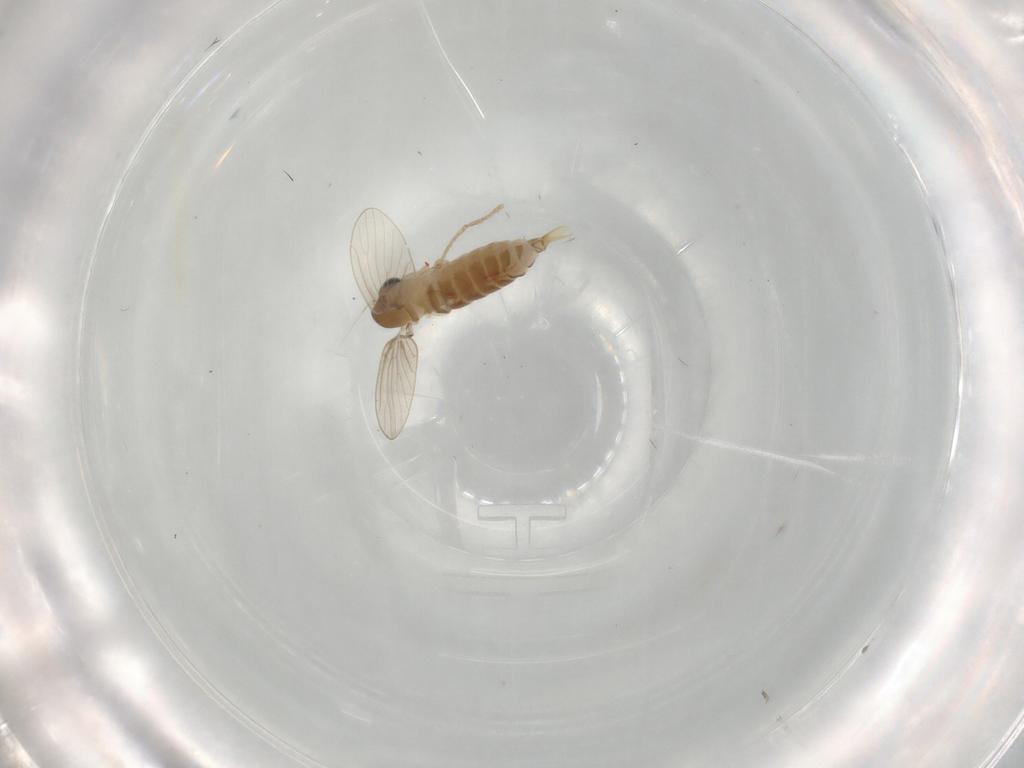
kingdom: Animalia
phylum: Arthropoda
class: Insecta
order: Diptera
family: Psychodidae
